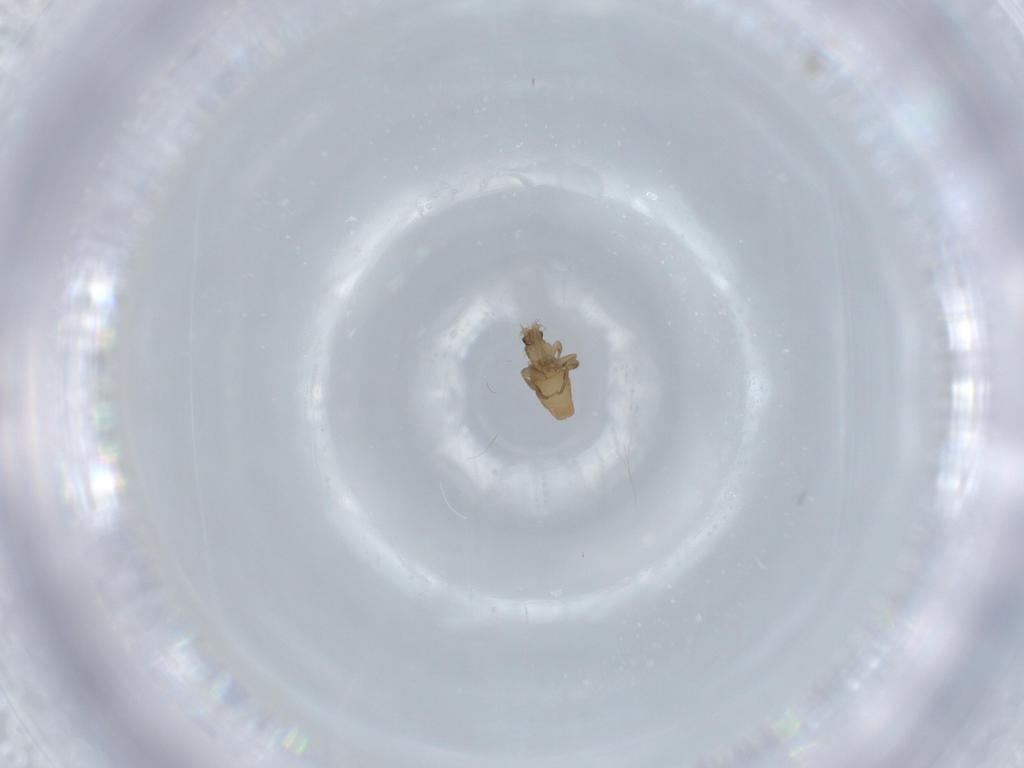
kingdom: Animalia
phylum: Arthropoda
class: Insecta
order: Diptera
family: Phoridae
